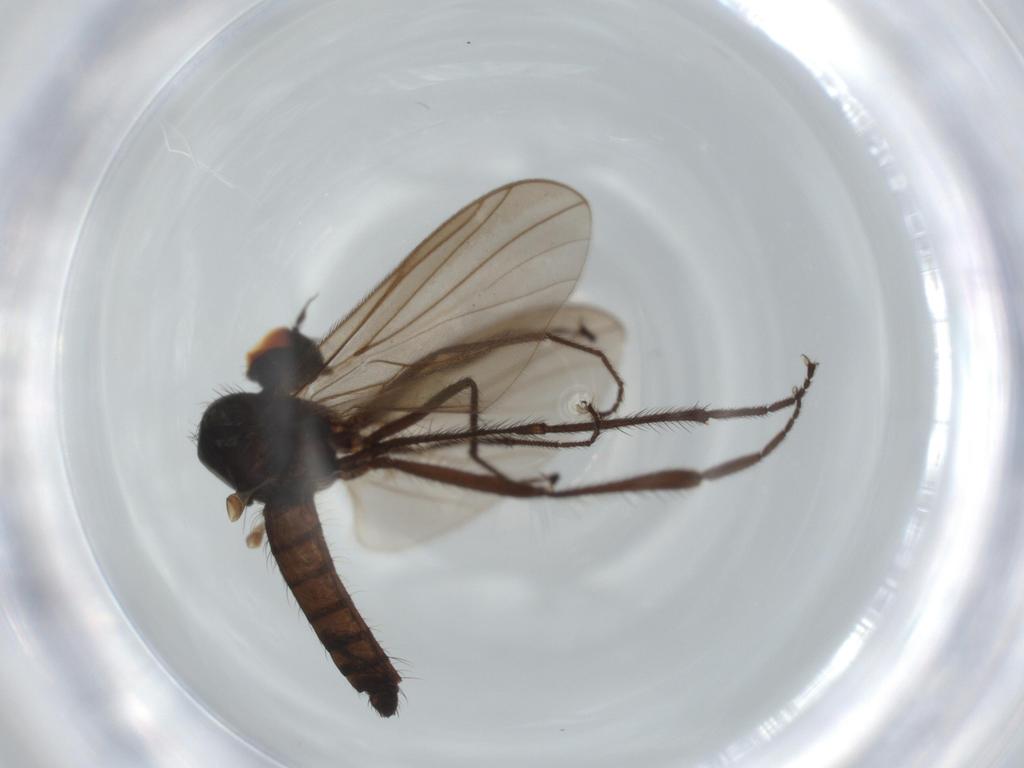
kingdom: Animalia
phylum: Arthropoda
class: Insecta
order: Diptera
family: Hybotidae
